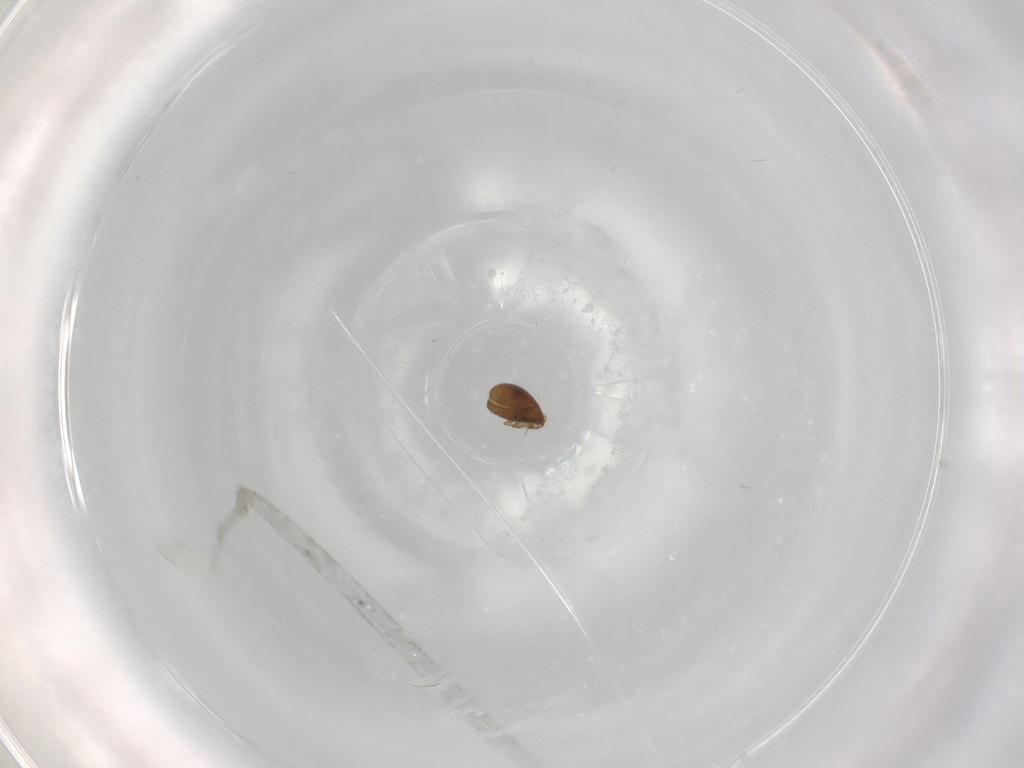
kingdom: Animalia
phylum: Arthropoda
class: Arachnida
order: Sarcoptiformes
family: Crotoniidae
